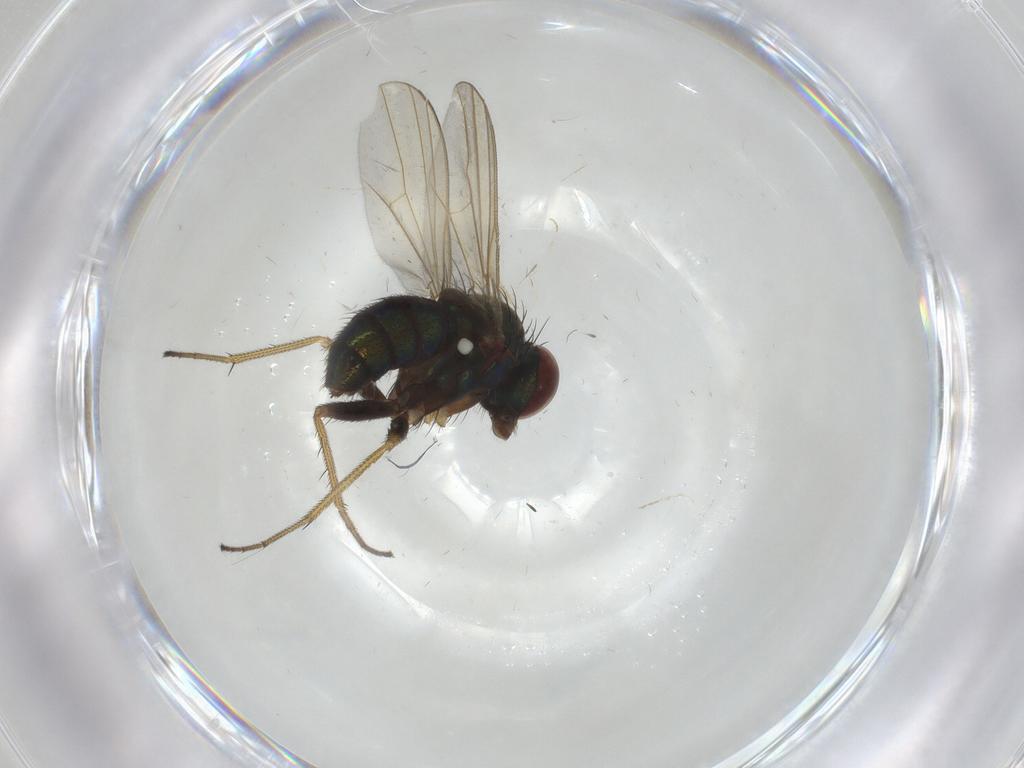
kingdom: Animalia
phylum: Arthropoda
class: Insecta
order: Diptera
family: Dolichopodidae
